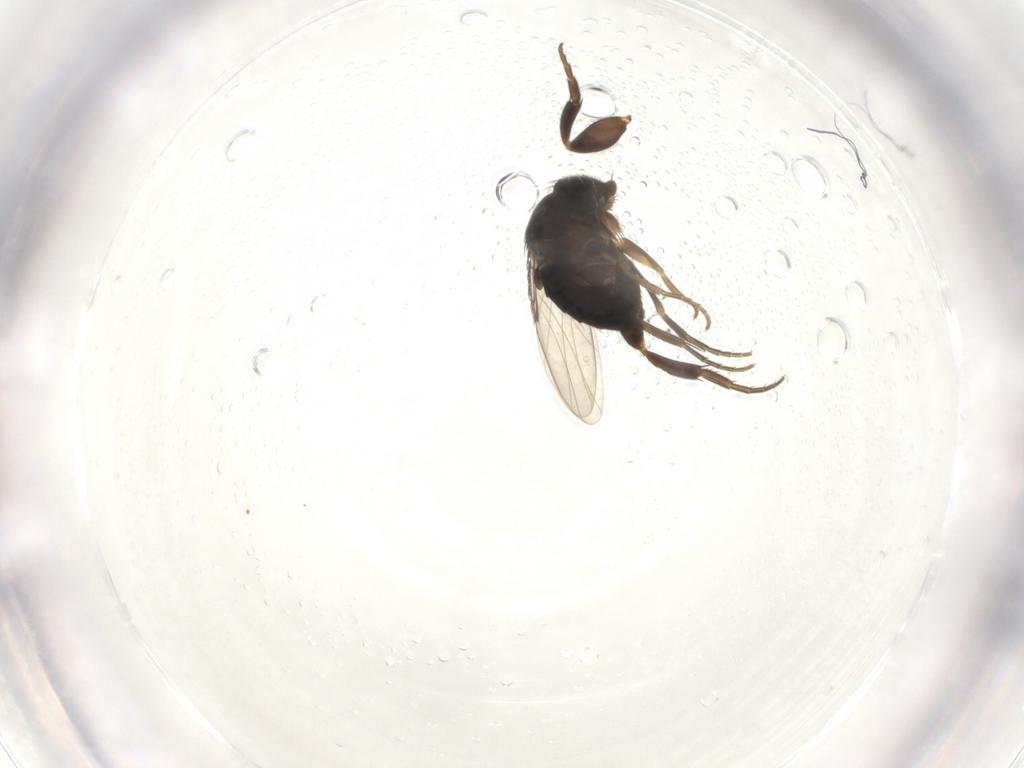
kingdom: Animalia
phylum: Arthropoda
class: Insecta
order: Diptera
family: Phoridae
